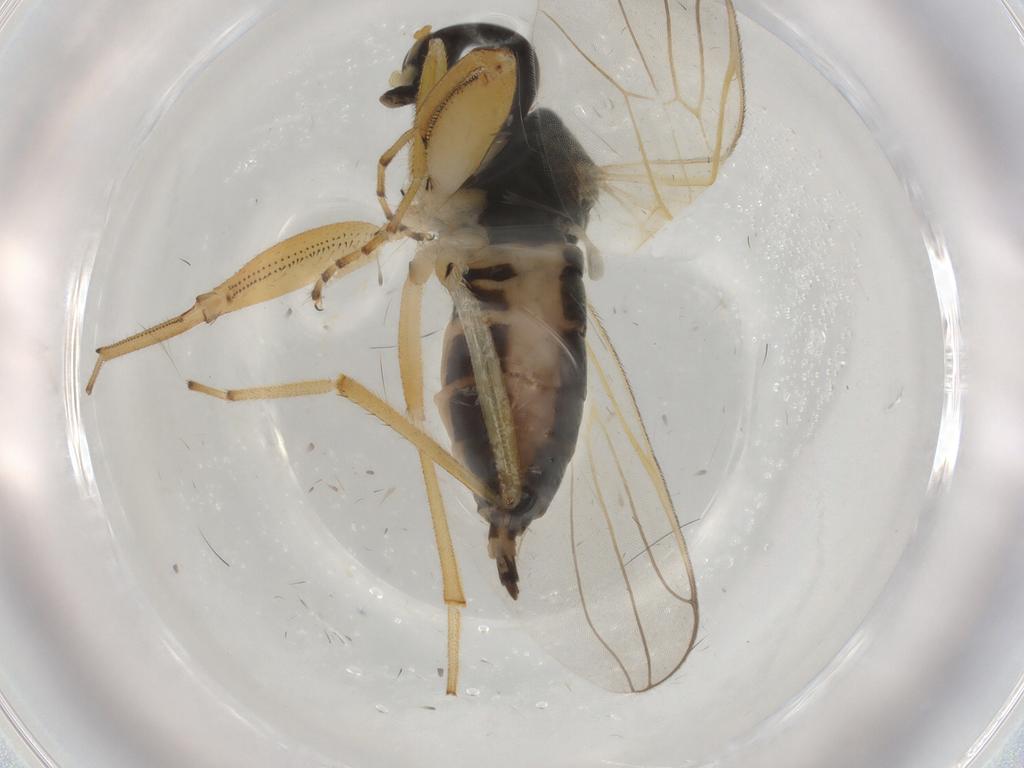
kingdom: Animalia
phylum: Arthropoda
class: Insecta
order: Diptera
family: Hybotidae
